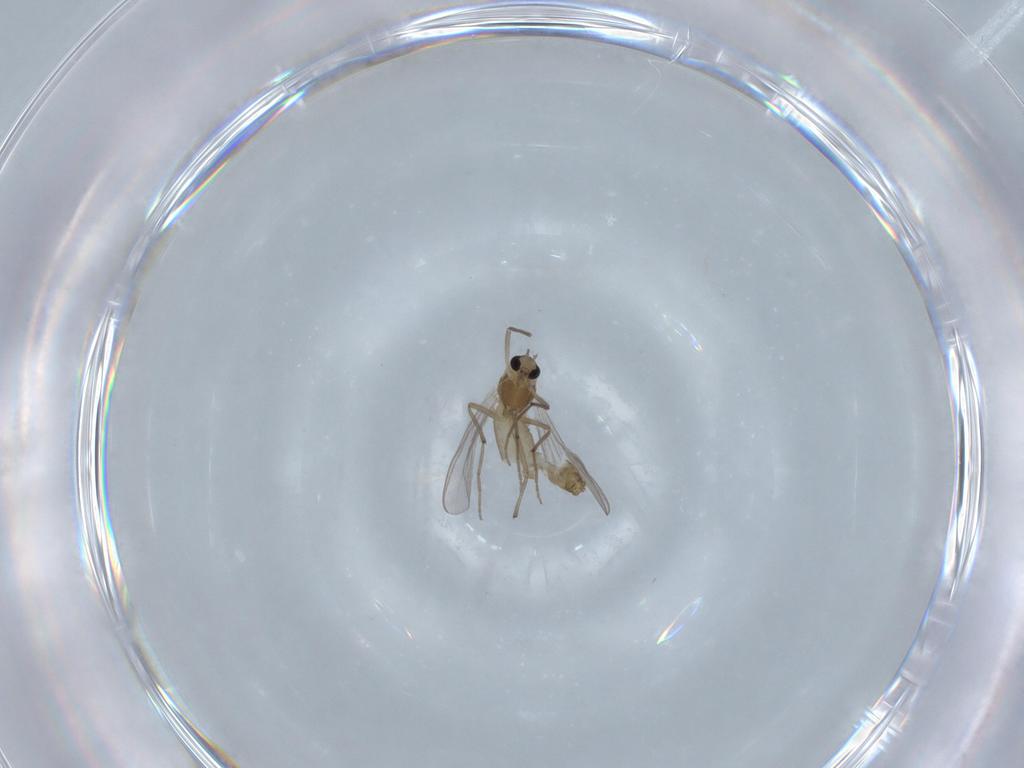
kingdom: Animalia
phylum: Arthropoda
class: Insecta
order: Diptera
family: Chironomidae
